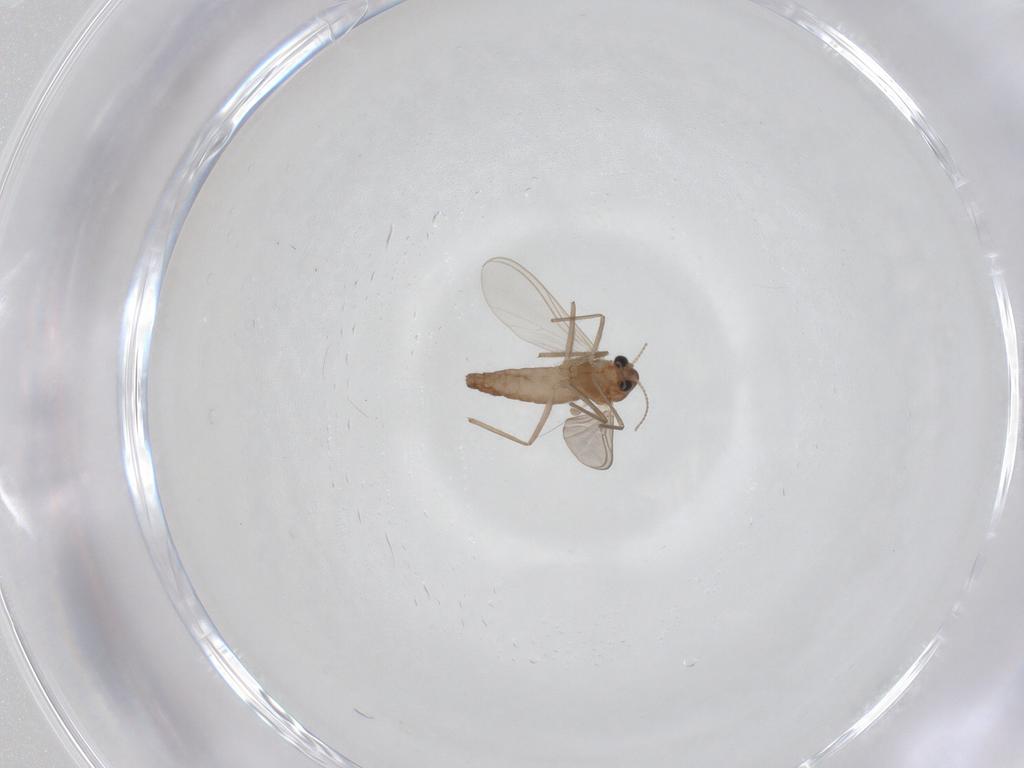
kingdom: Animalia
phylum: Arthropoda
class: Insecta
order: Diptera
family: Chironomidae
